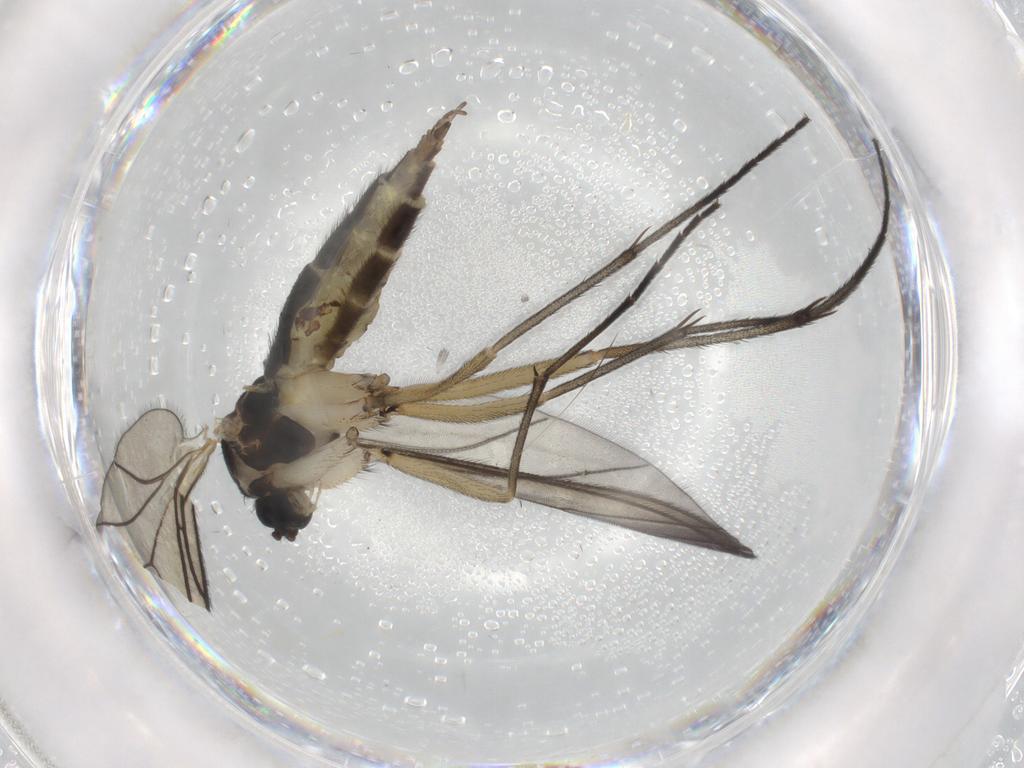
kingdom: Animalia
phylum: Arthropoda
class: Insecta
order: Diptera
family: Sciaridae
